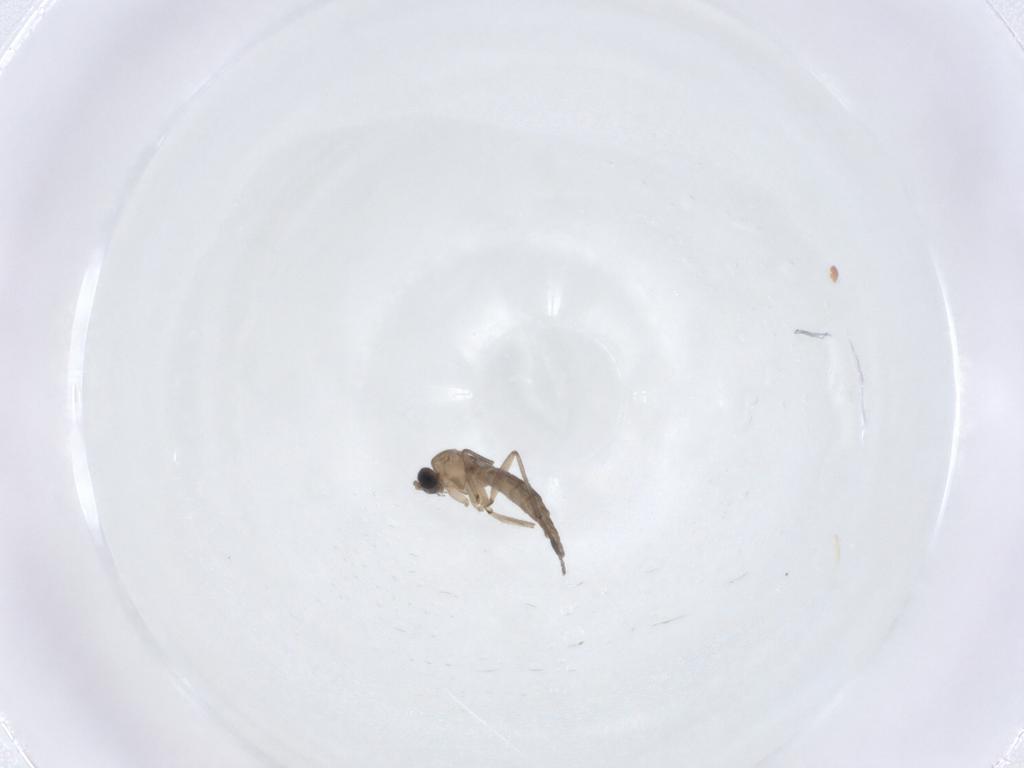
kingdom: Animalia
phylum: Arthropoda
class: Insecta
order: Diptera
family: Sciaridae
